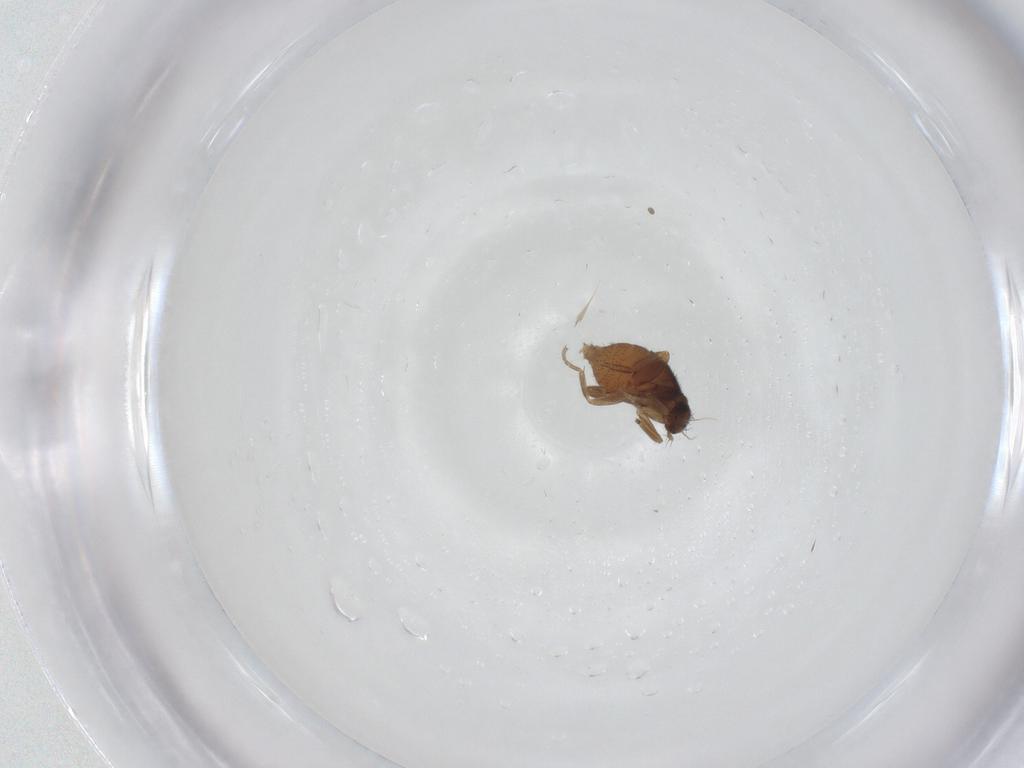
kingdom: Animalia
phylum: Arthropoda
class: Insecta
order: Diptera
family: Phoridae
